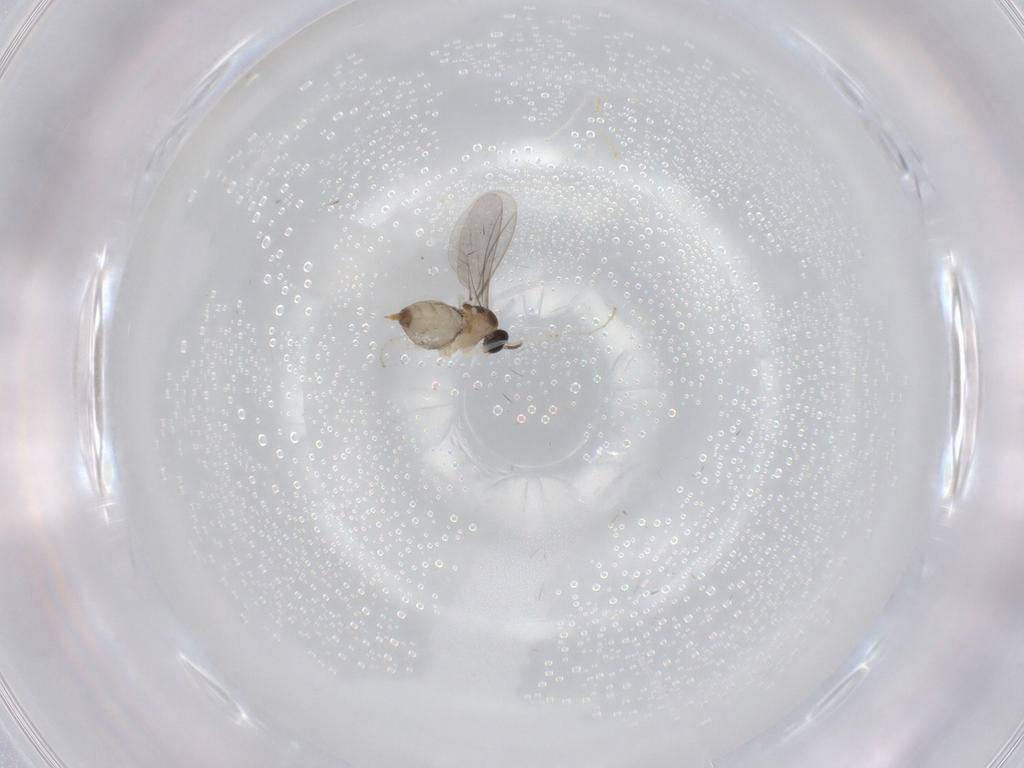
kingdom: Animalia
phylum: Arthropoda
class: Insecta
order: Diptera
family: Cecidomyiidae
